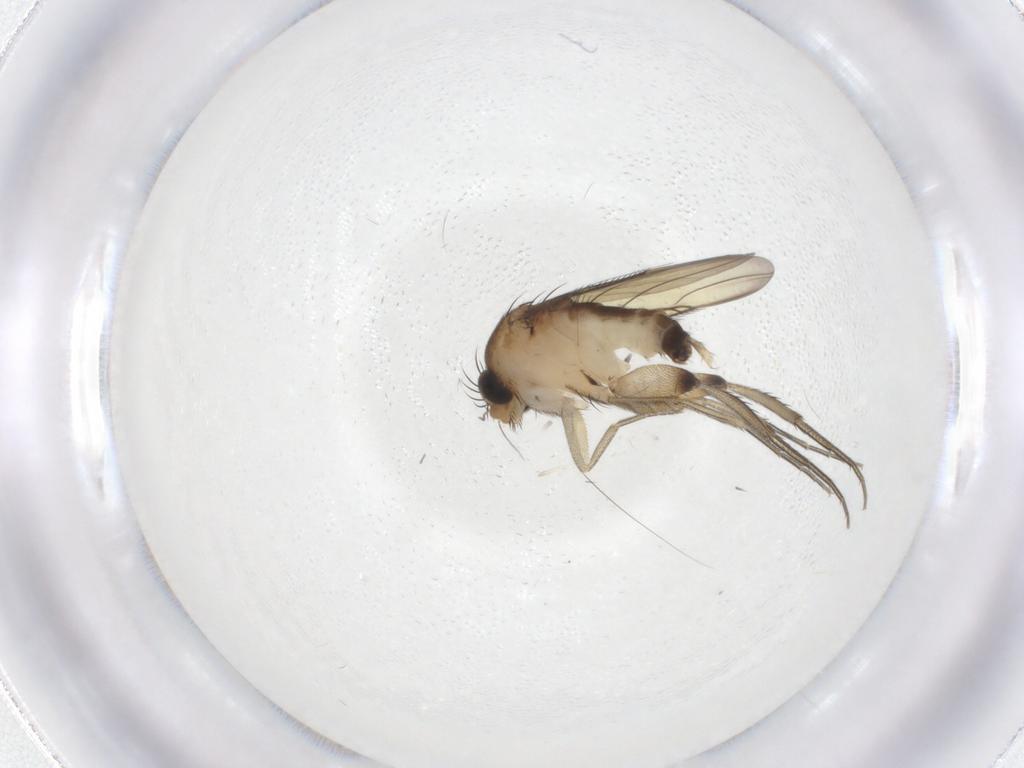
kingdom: Animalia
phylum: Arthropoda
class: Insecta
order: Diptera
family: Phoridae
